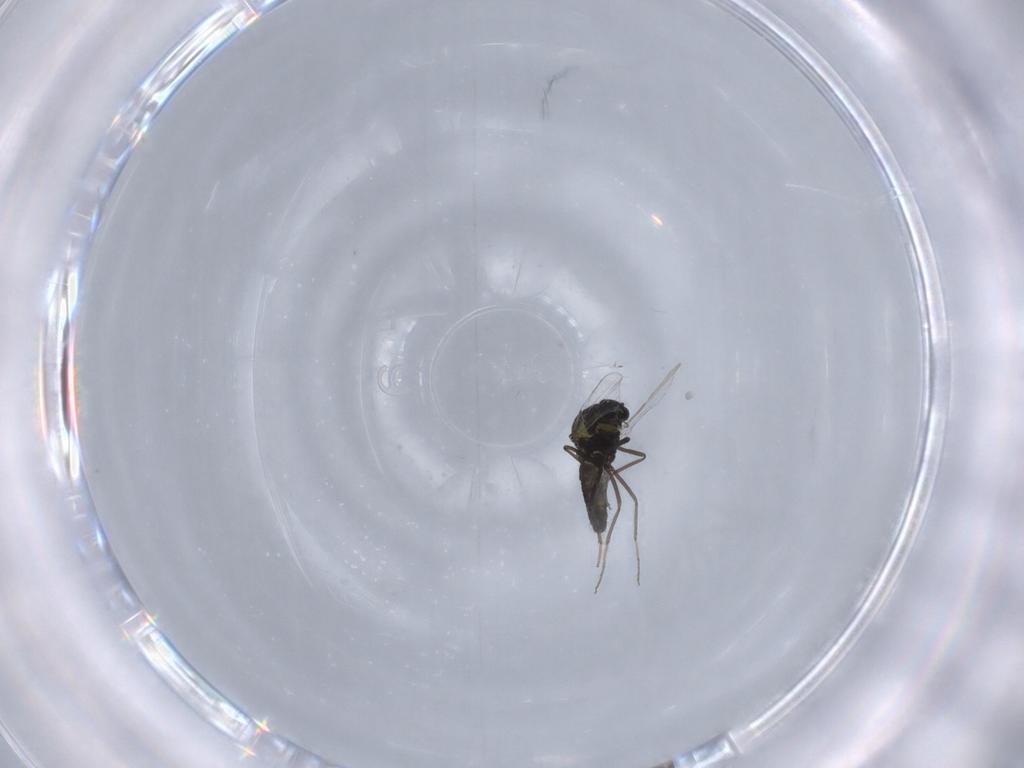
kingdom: Animalia
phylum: Arthropoda
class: Insecta
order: Diptera
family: Ceratopogonidae
